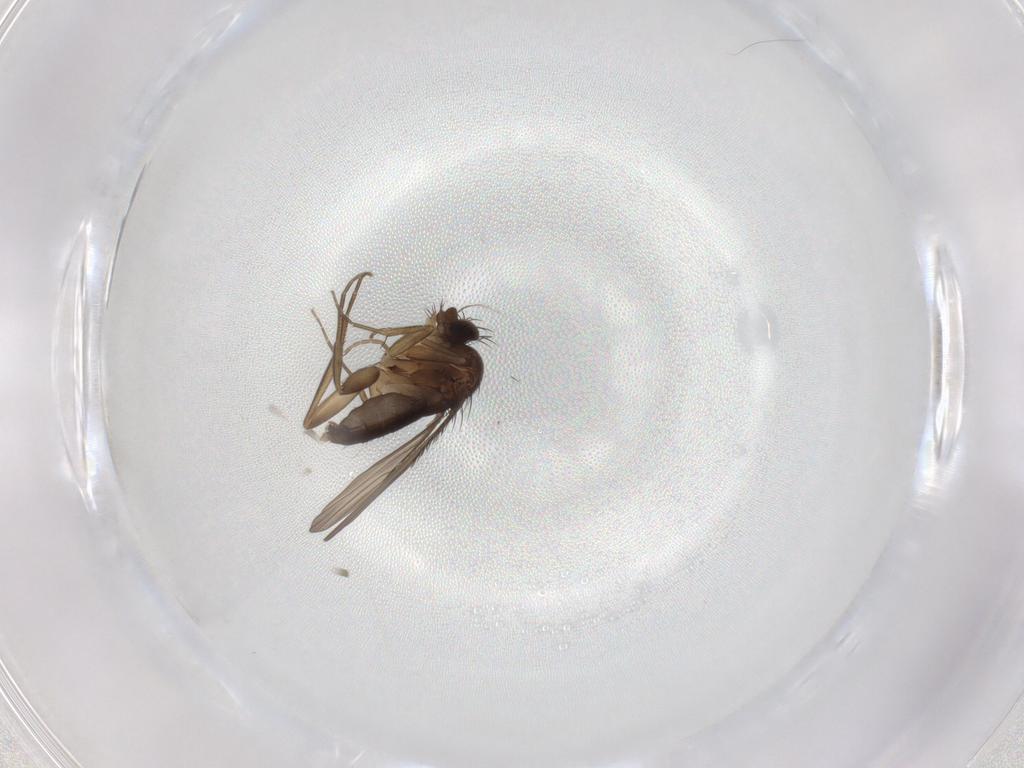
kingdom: Animalia
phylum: Arthropoda
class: Insecta
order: Diptera
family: Phoridae
